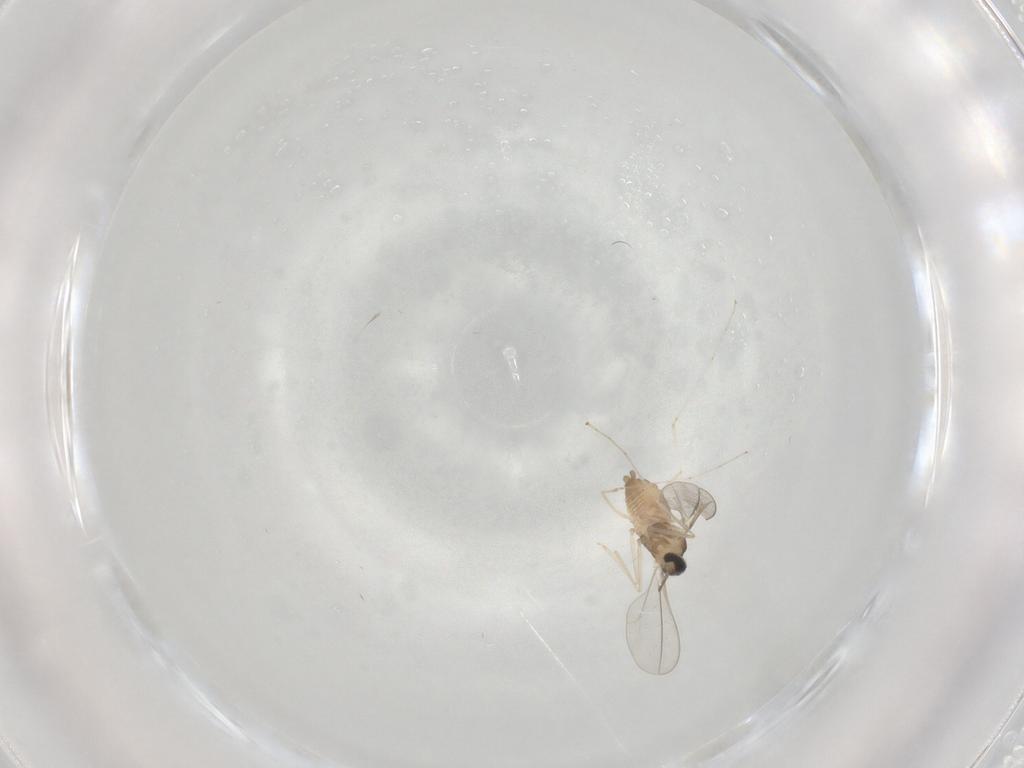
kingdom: Animalia
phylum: Arthropoda
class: Insecta
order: Diptera
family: Cecidomyiidae
